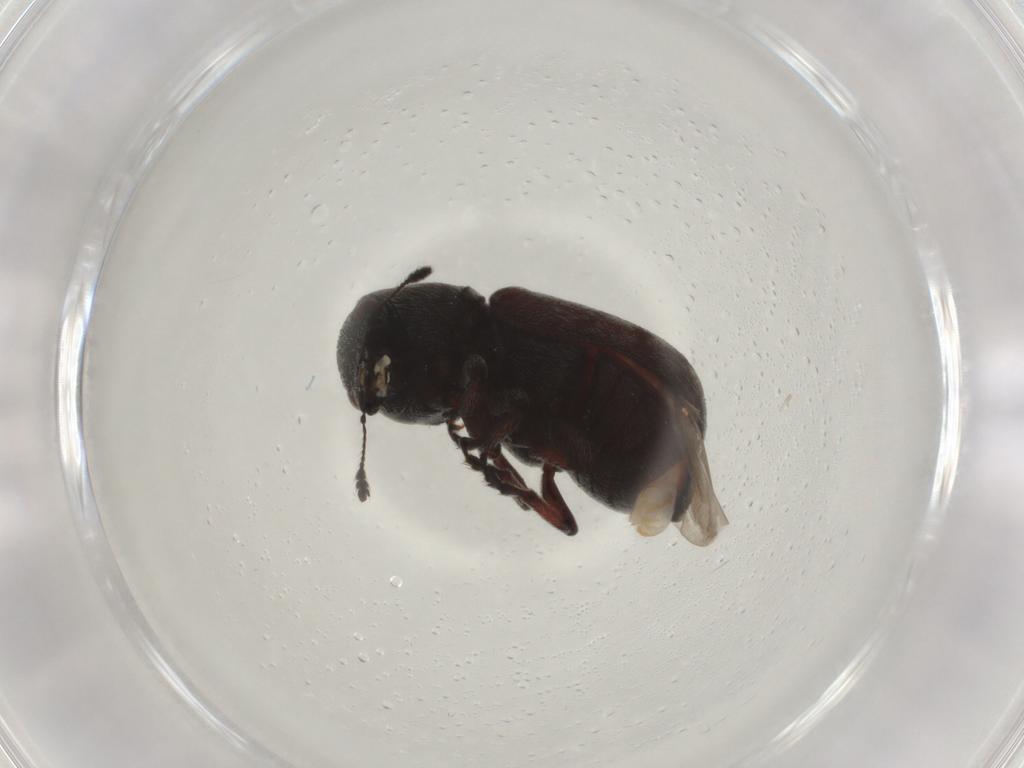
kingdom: Animalia
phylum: Arthropoda
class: Insecta
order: Coleoptera
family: Anthribidae
